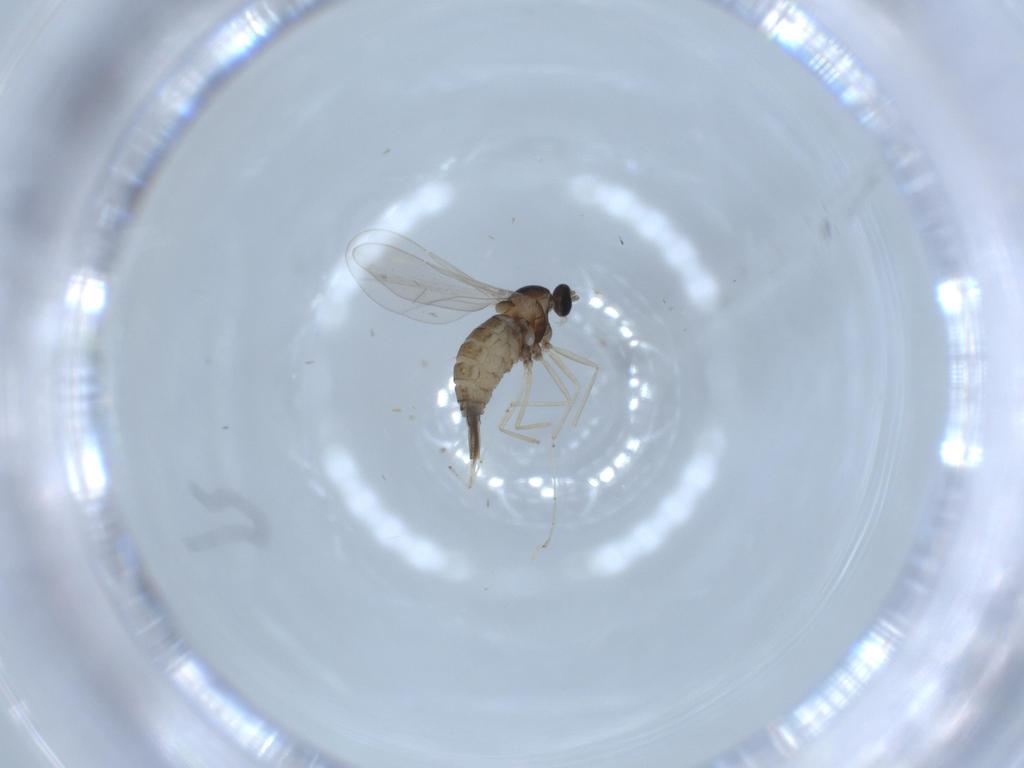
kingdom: Animalia
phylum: Arthropoda
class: Insecta
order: Diptera
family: Cecidomyiidae
